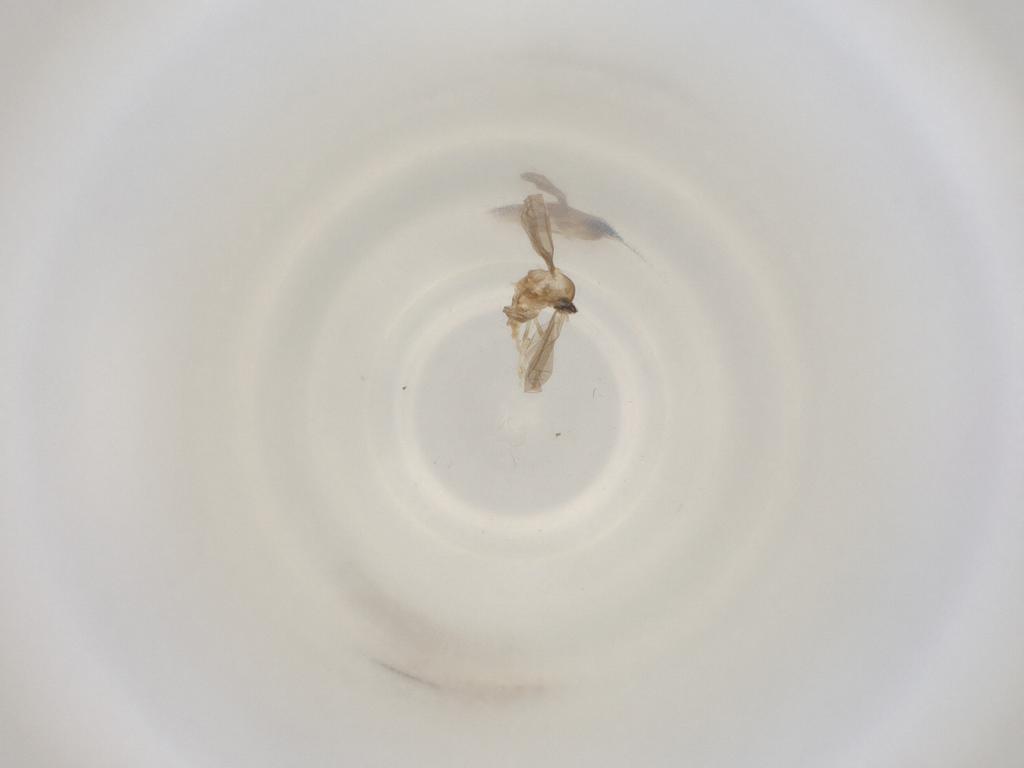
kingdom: Animalia
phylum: Arthropoda
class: Insecta
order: Diptera
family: Cecidomyiidae
